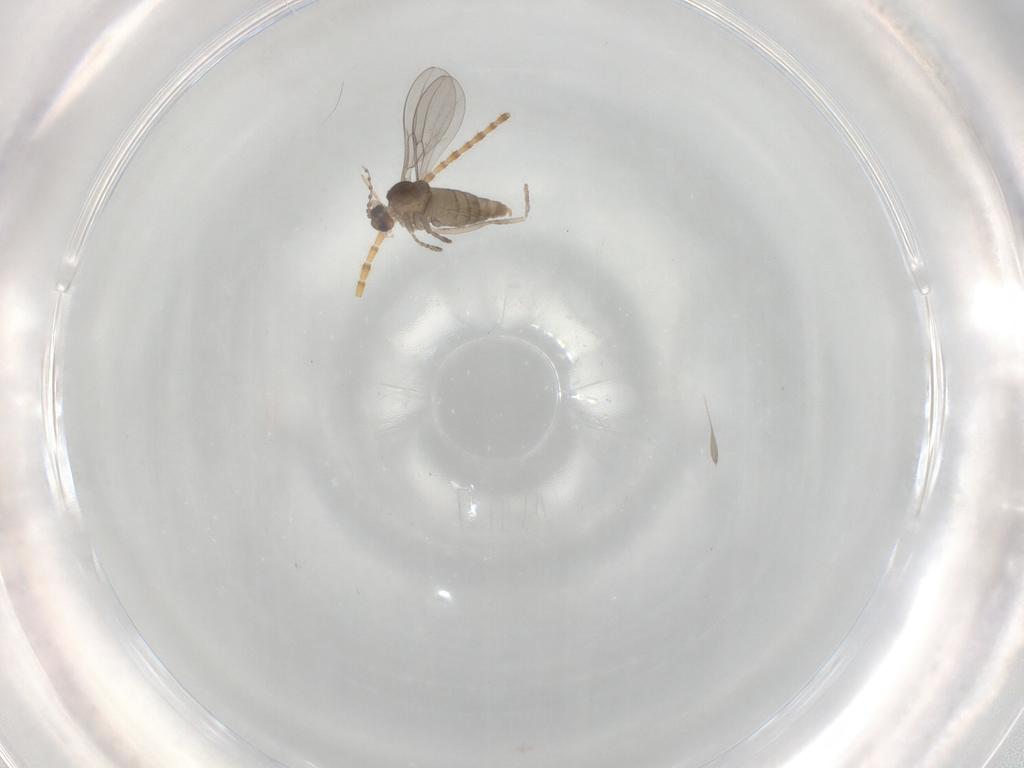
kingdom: Animalia
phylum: Arthropoda
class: Insecta
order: Diptera
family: Cecidomyiidae
